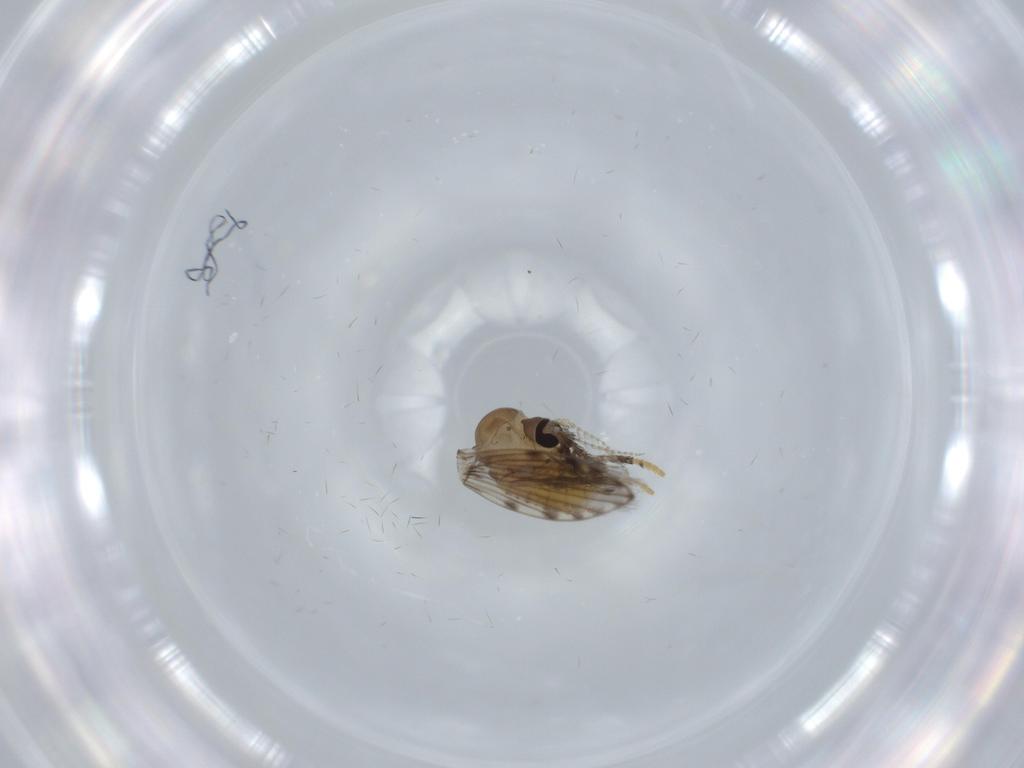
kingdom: Animalia
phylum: Arthropoda
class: Insecta
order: Diptera
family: Psychodidae
